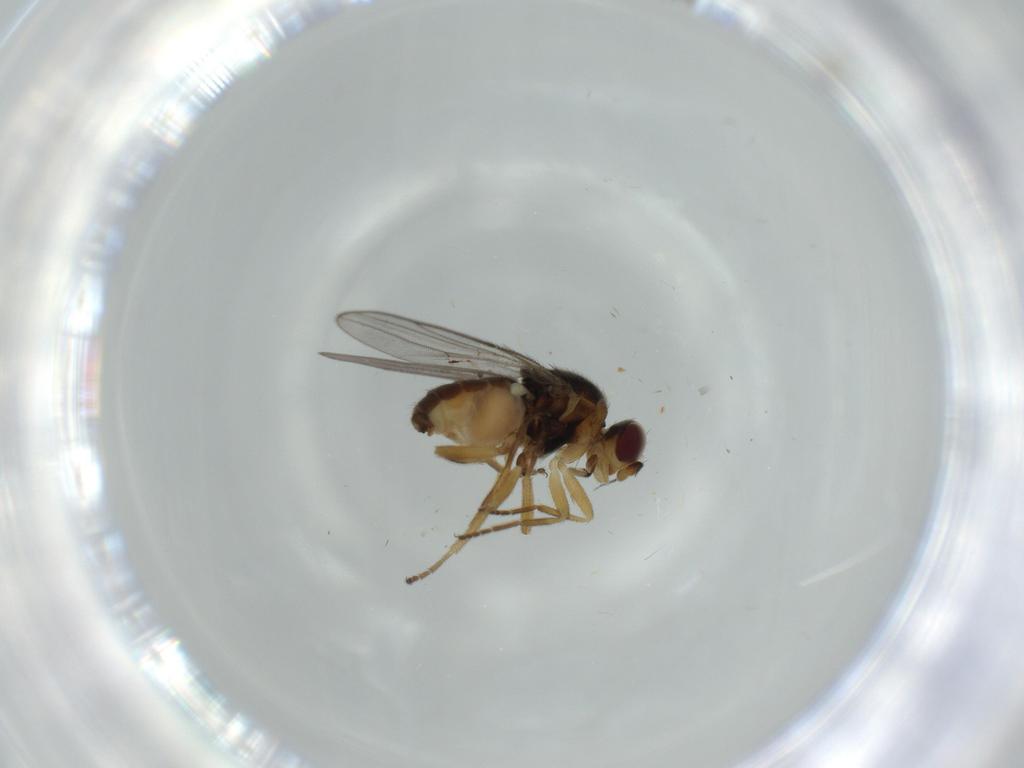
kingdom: Animalia
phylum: Arthropoda
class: Insecta
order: Diptera
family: Chloropidae
